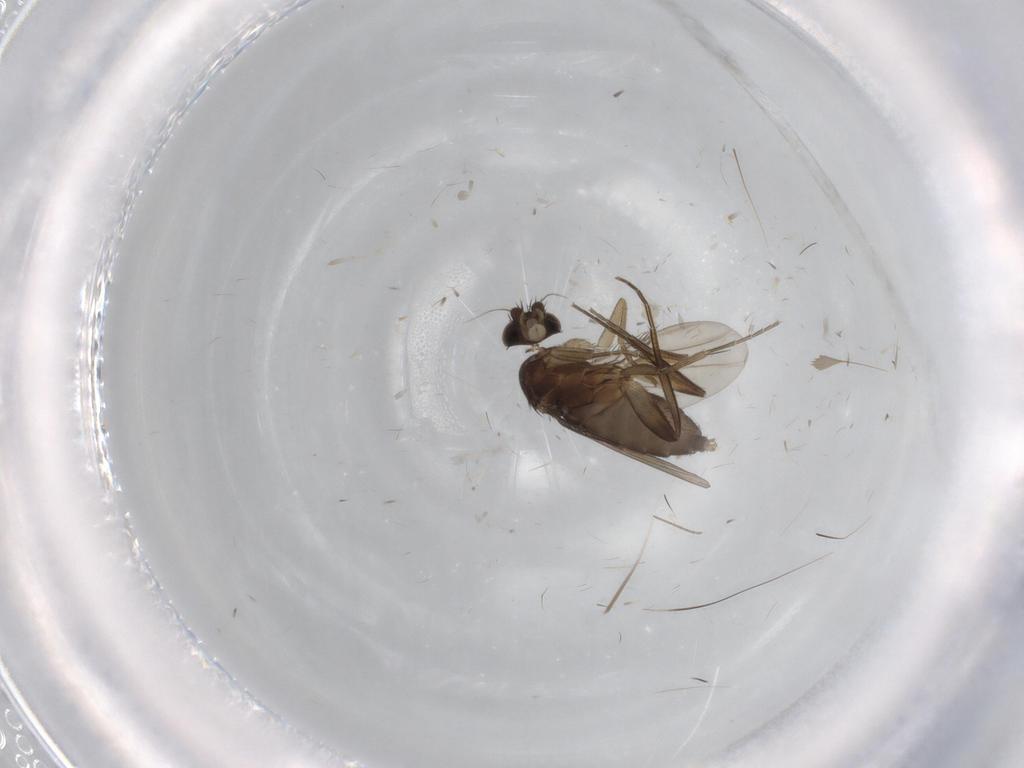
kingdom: Animalia
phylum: Arthropoda
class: Insecta
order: Diptera
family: Phoridae
